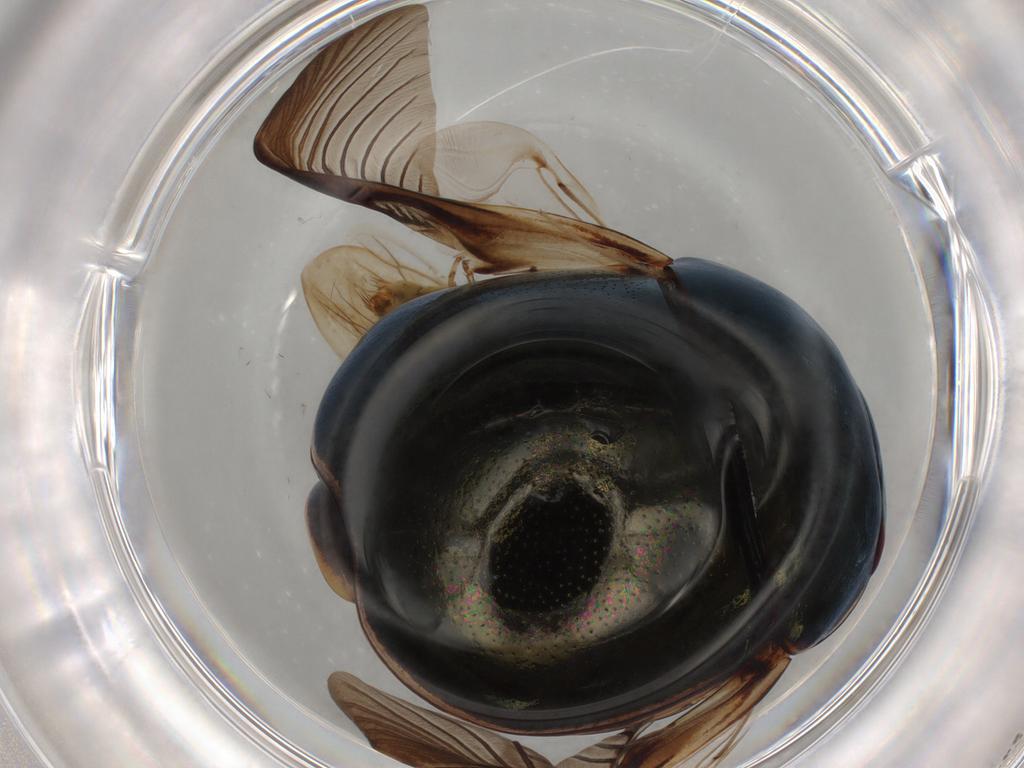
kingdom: Animalia
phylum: Arthropoda
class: Insecta
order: Hemiptera
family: Cicadellidae
